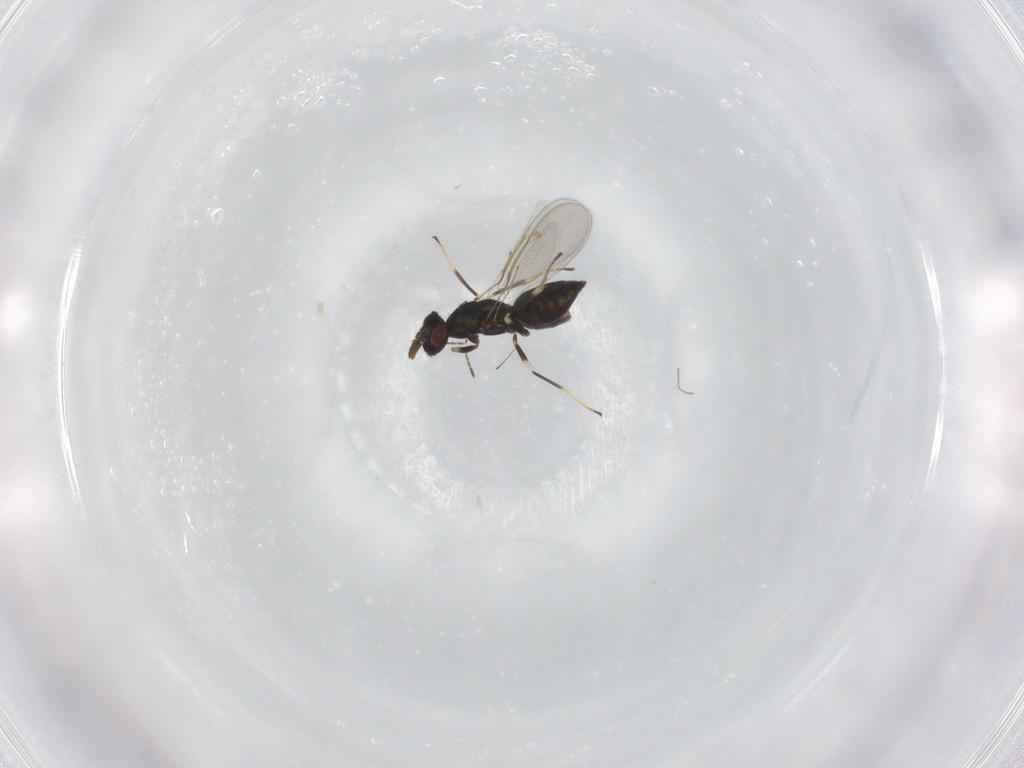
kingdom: Animalia
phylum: Arthropoda
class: Insecta
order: Hymenoptera
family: Eulophidae
